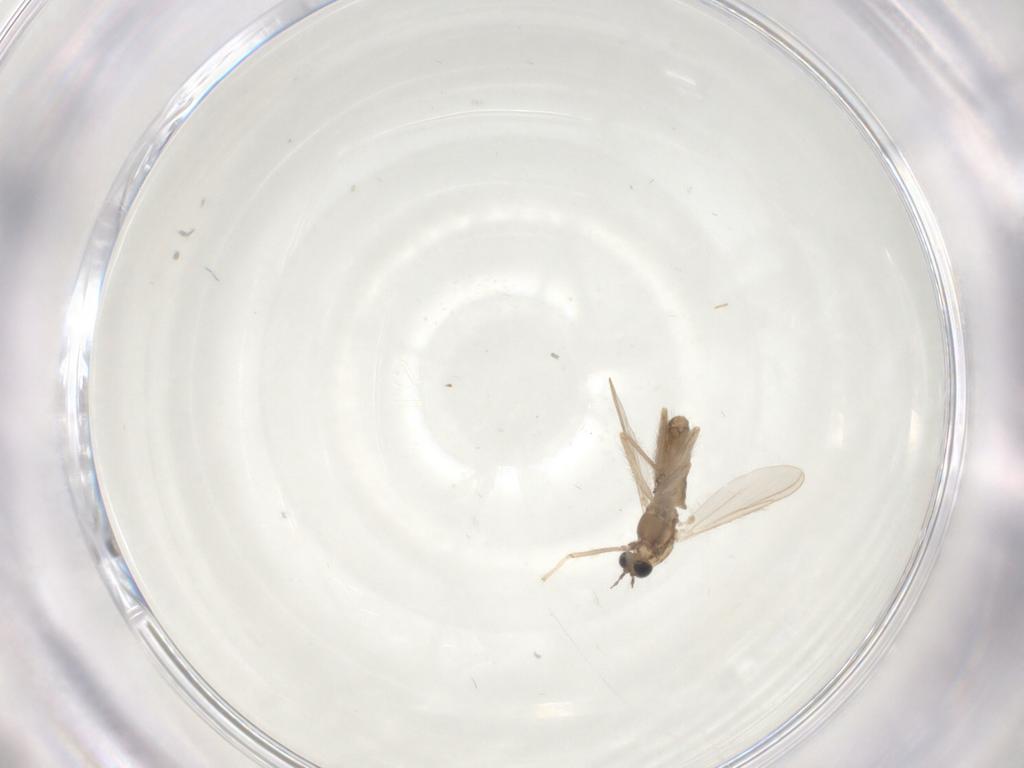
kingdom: Animalia
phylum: Arthropoda
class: Insecta
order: Diptera
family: Chironomidae
